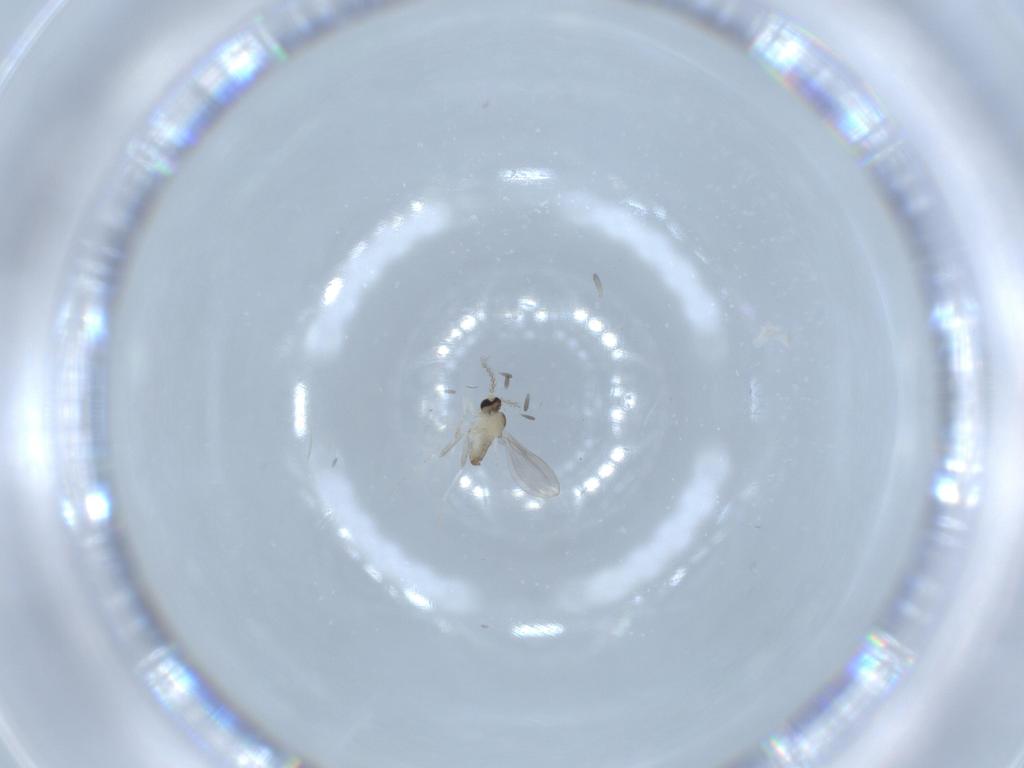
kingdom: Animalia
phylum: Arthropoda
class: Insecta
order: Diptera
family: Cecidomyiidae
